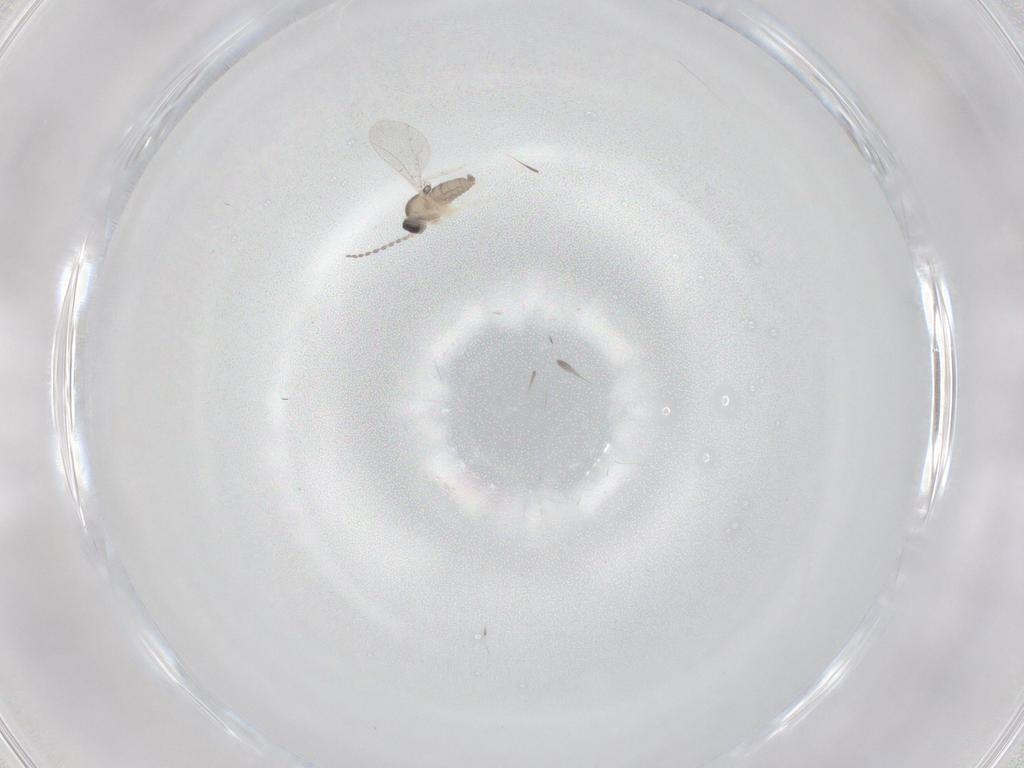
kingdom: Animalia
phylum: Arthropoda
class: Insecta
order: Diptera
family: Cecidomyiidae
